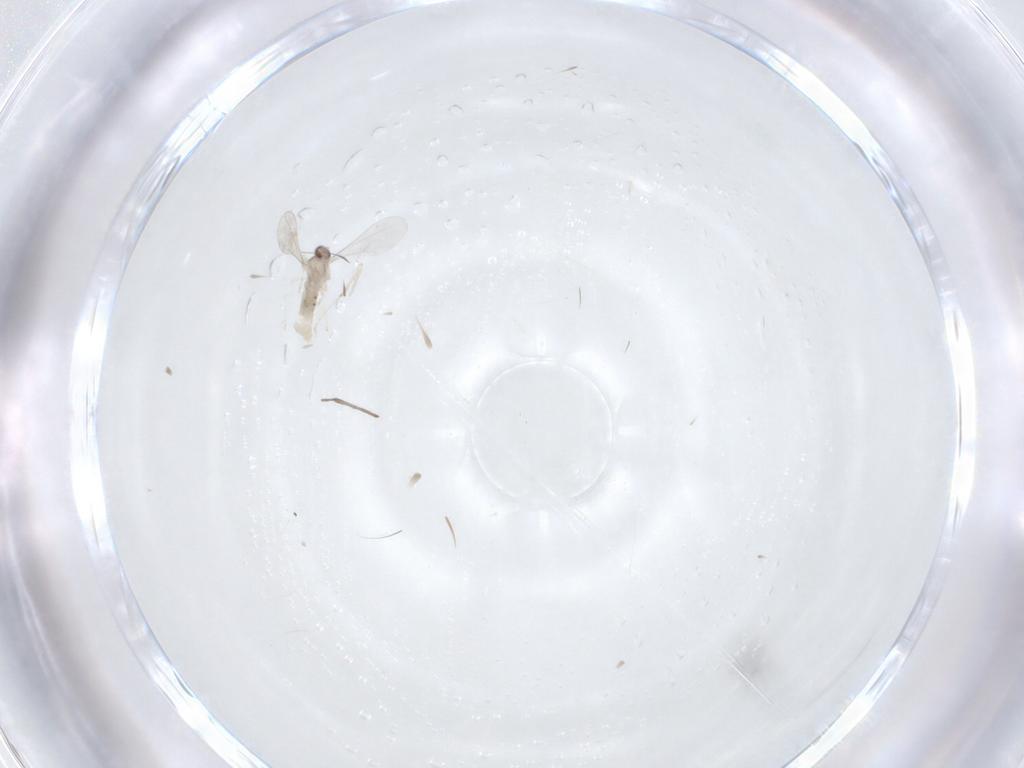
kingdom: Animalia
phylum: Arthropoda
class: Insecta
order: Diptera
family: Cecidomyiidae
